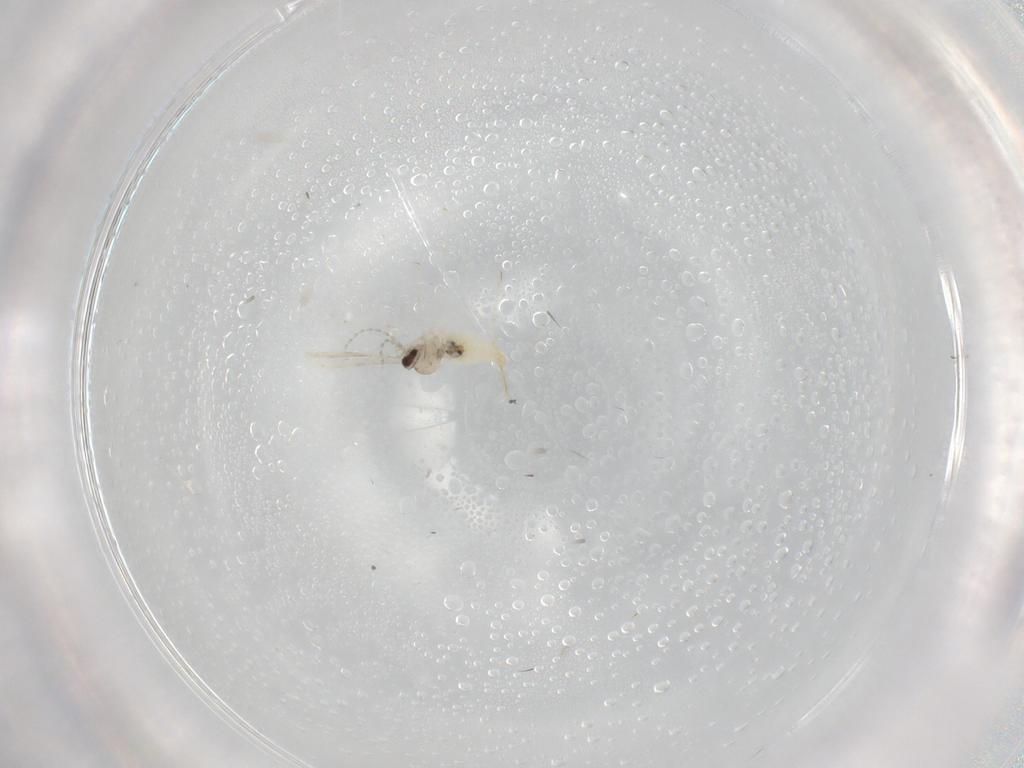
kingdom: Animalia
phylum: Arthropoda
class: Insecta
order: Diptera
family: Cecidomyiidae
